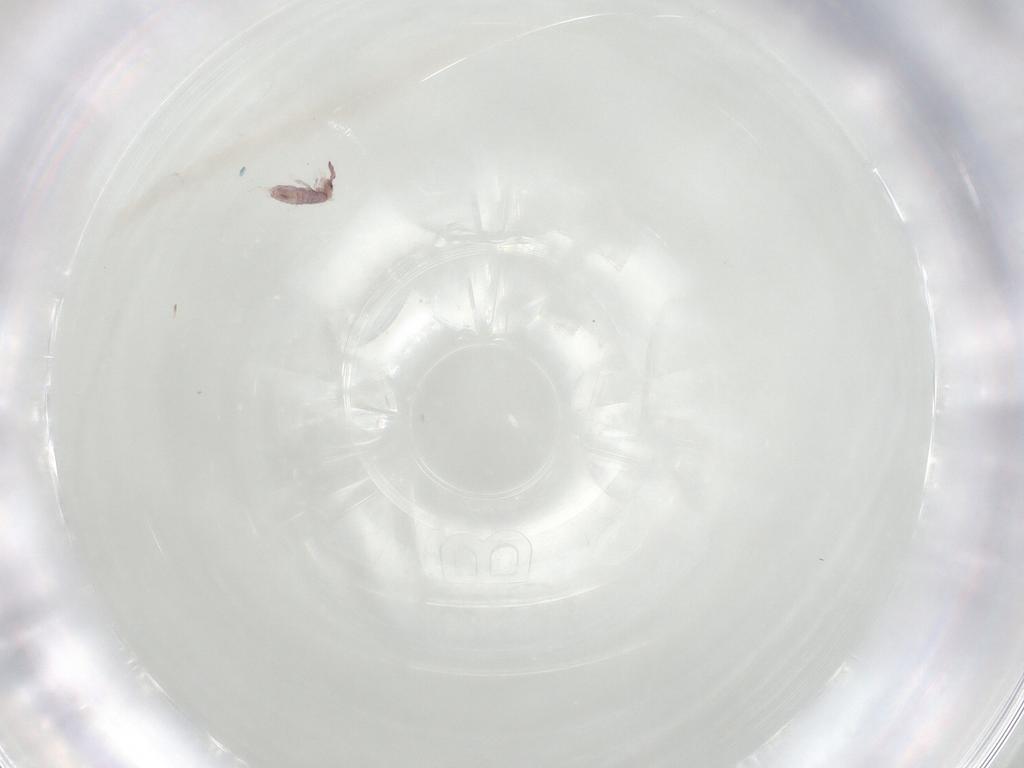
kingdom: Animalia
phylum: Arthropoda
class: Collembola
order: Entomobryomorpha
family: Entomobryidae
